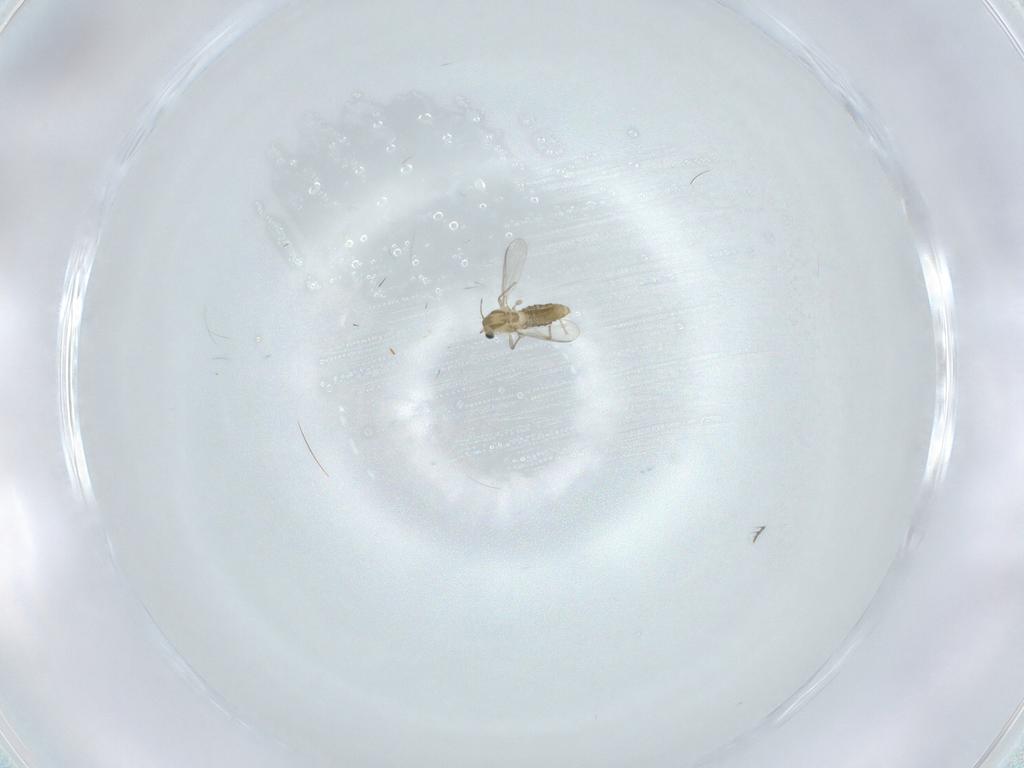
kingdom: Animalia
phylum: Arthropoda
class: Insecta
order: Diptera
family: Chironomidae
